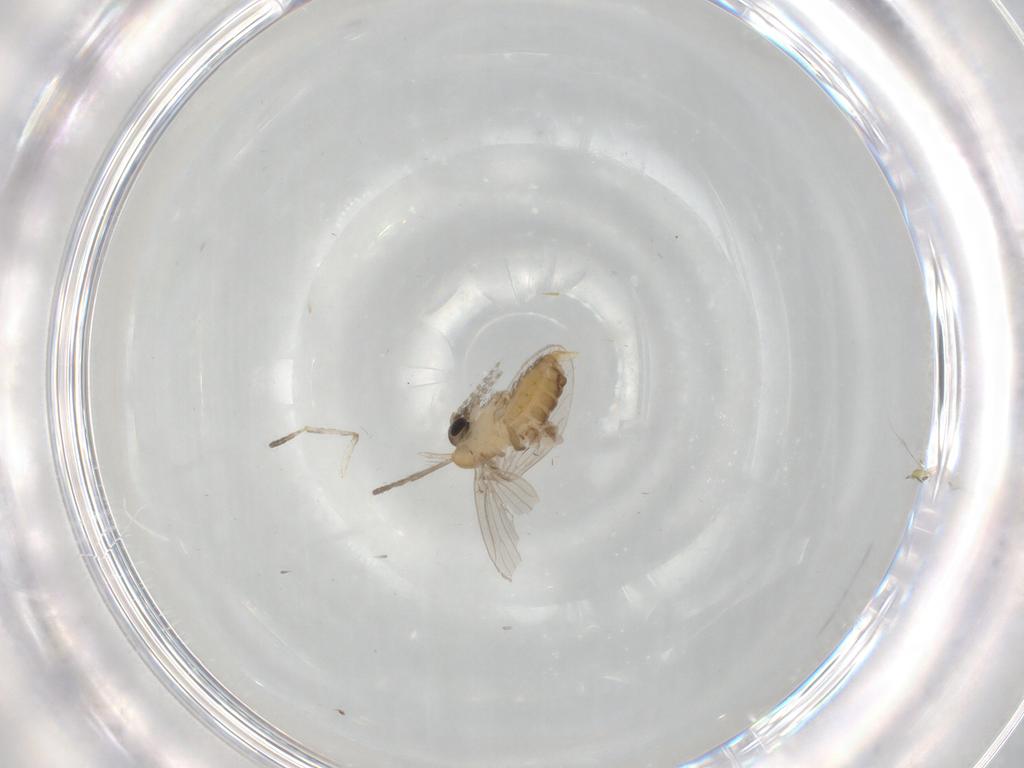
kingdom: Animalia
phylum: Arthropoda
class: Insecta
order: Diptera
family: Psychodidae
